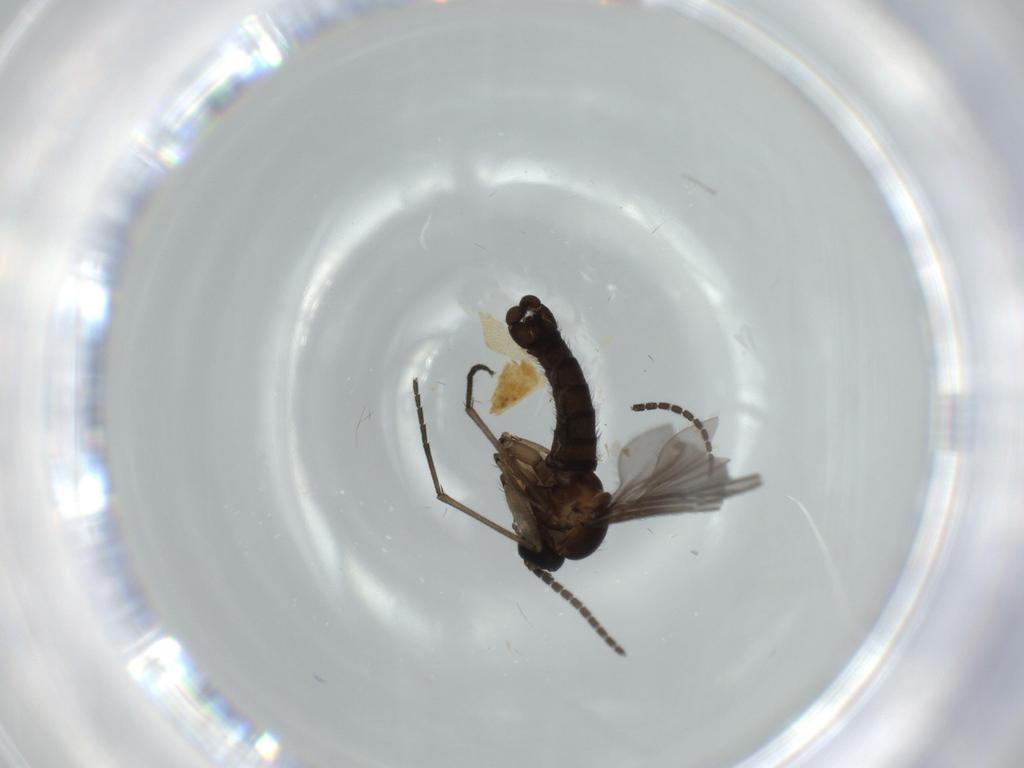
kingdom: Animalia
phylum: Arthropoda
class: Insecta
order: Diptera
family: Sciaridae
